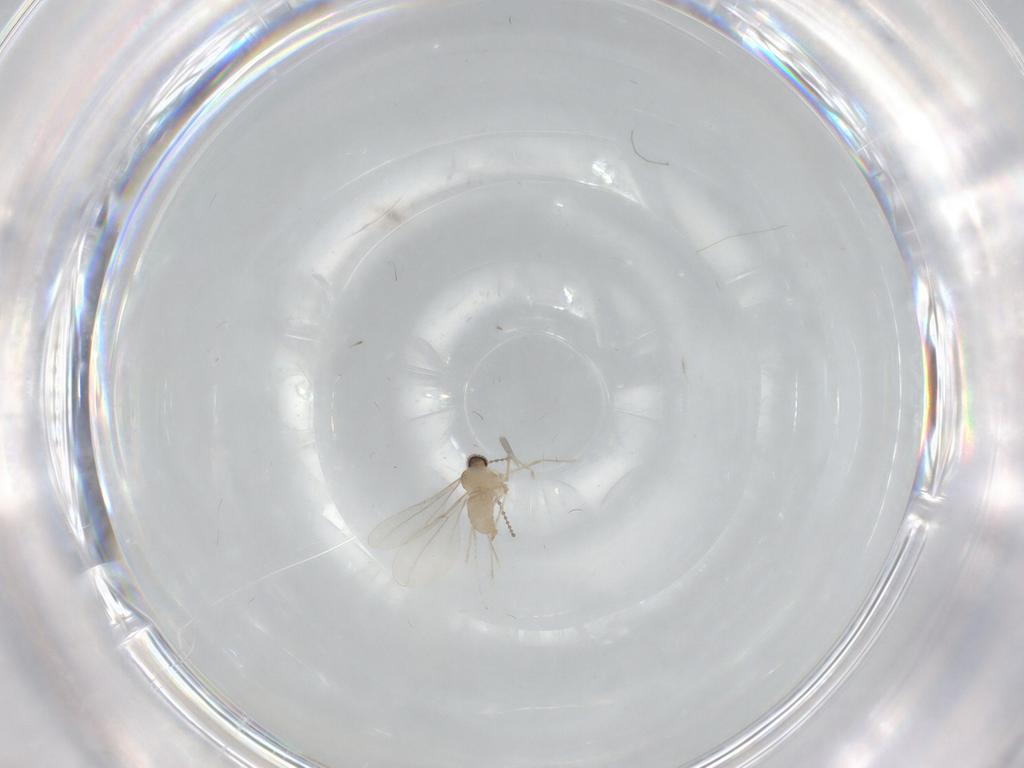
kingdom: Animalia
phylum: Arthropoda
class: Insecta
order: Diptera
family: Cecidomyiidae
